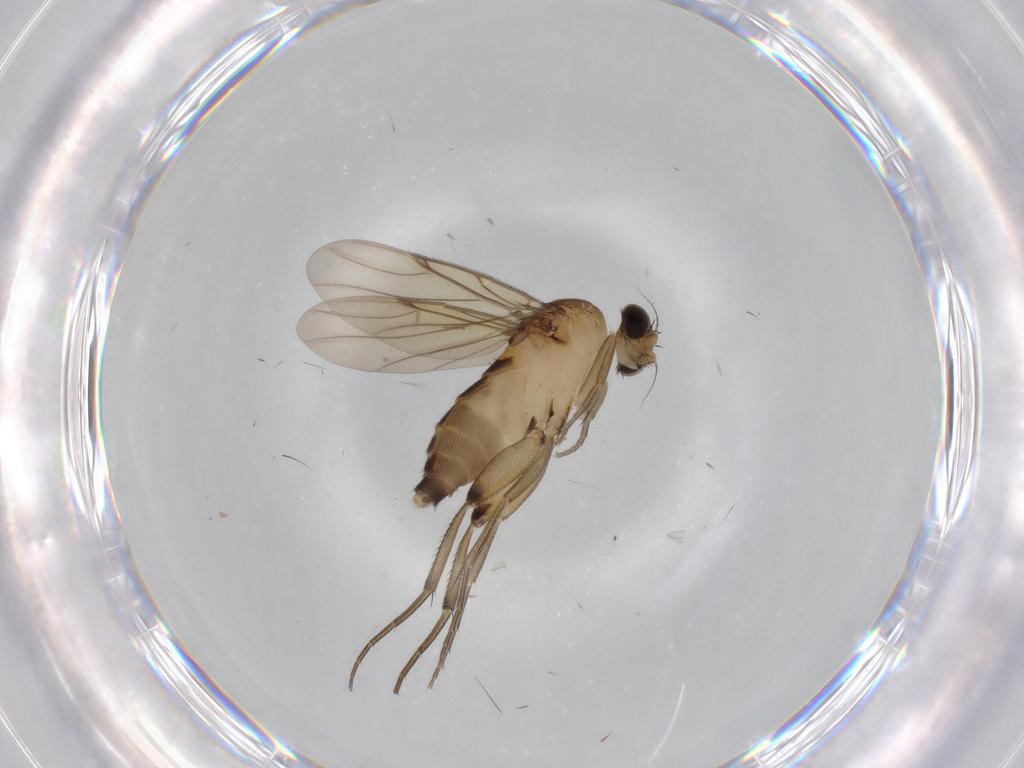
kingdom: Animalia
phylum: Arthropoda
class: Insecta
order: Diptera
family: Phoridae
